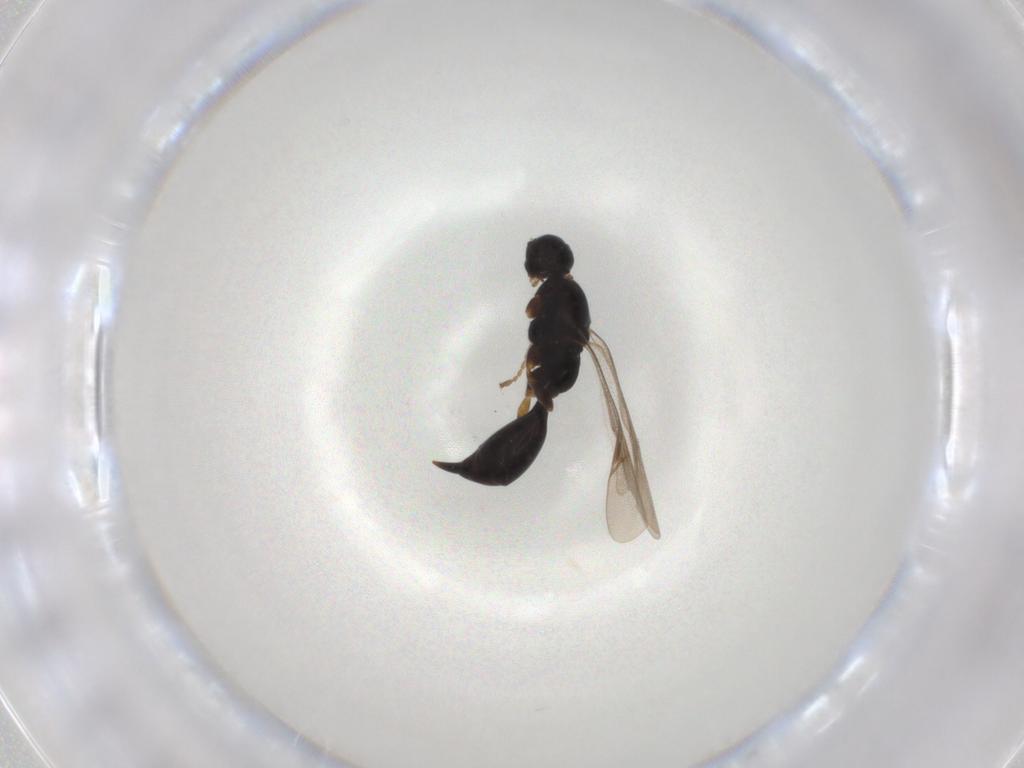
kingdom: Animalia
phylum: Arthropoda
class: Insecta
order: Hymenoptera
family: Proctotrupidae
